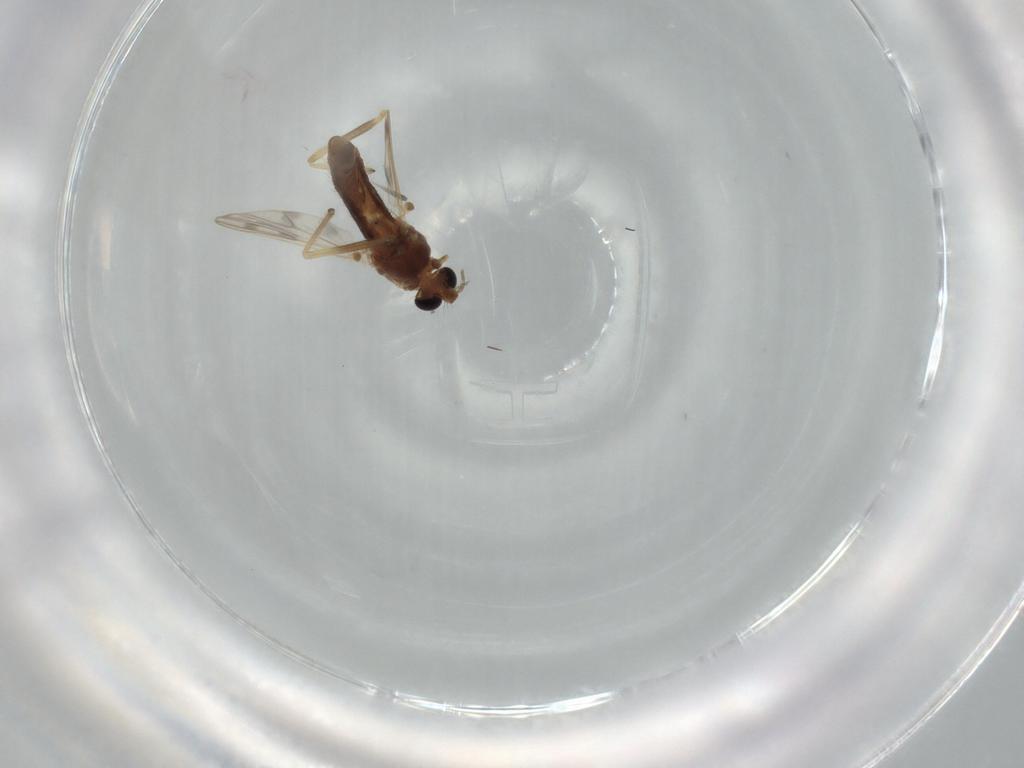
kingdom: Animalia
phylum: Arthropoda
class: Insecta
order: Diptera
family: Chironomidae
